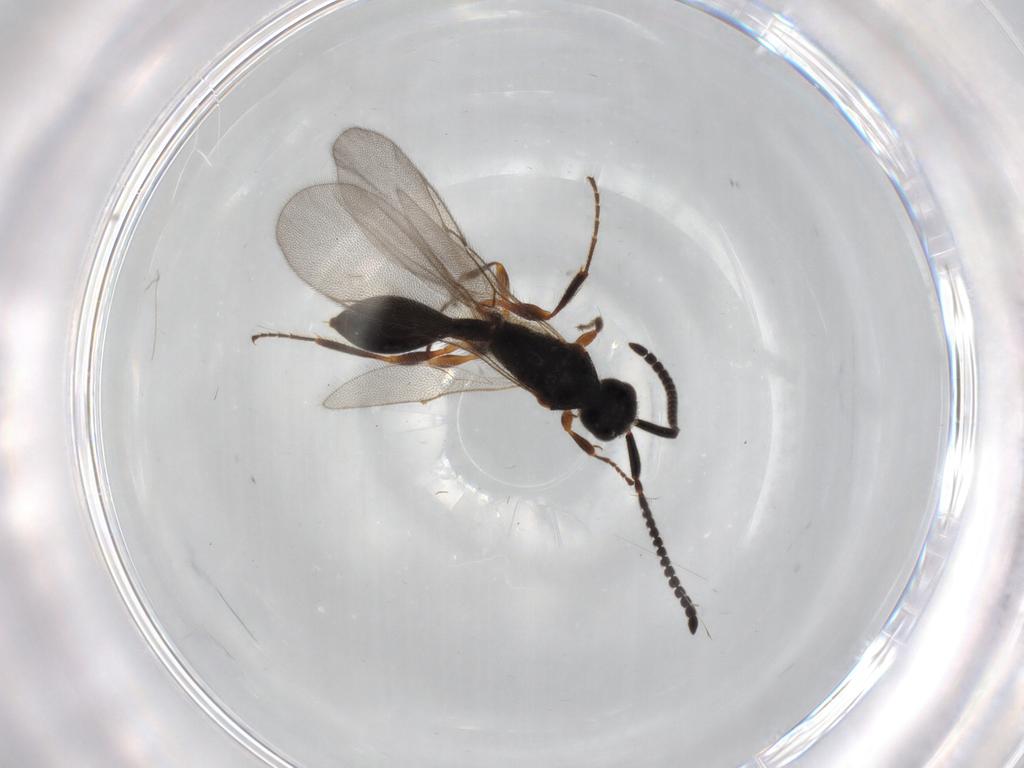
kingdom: Animalia
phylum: Arthropoda
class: Insecta
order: Hymenoptera
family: Diapriidae
